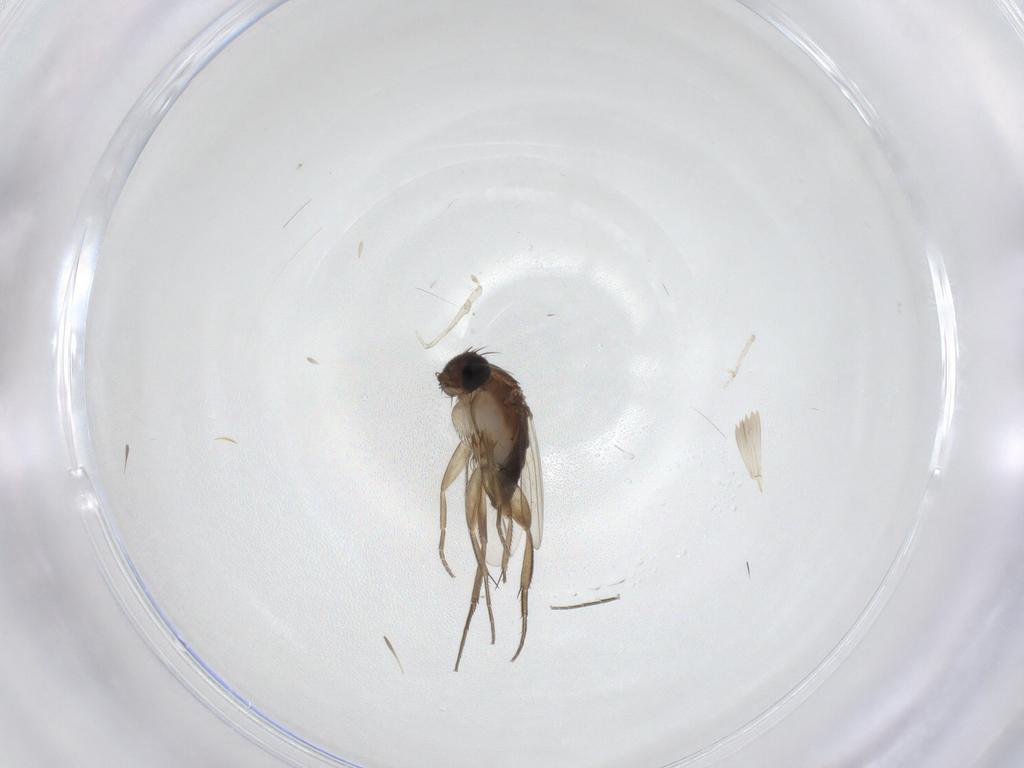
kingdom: Animalia
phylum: Arthropoda
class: Insecta
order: Diptera
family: Phoridae
